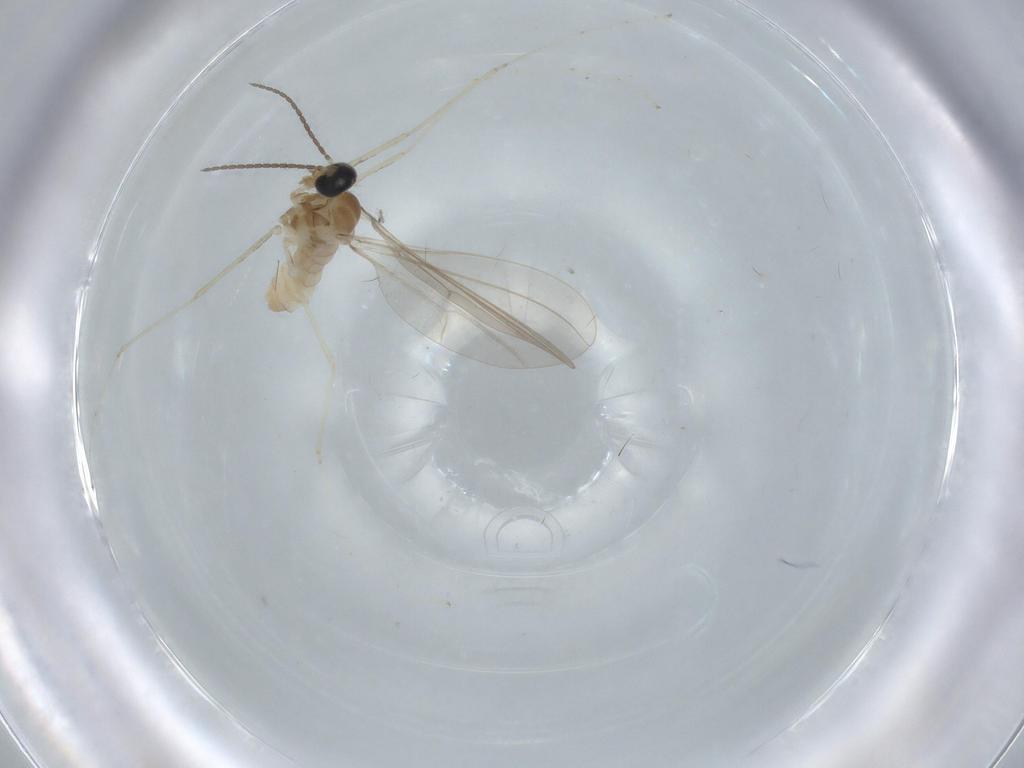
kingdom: Animalia
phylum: Arthropoda
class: Insecta
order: Diptera
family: Cecidomyiidae
